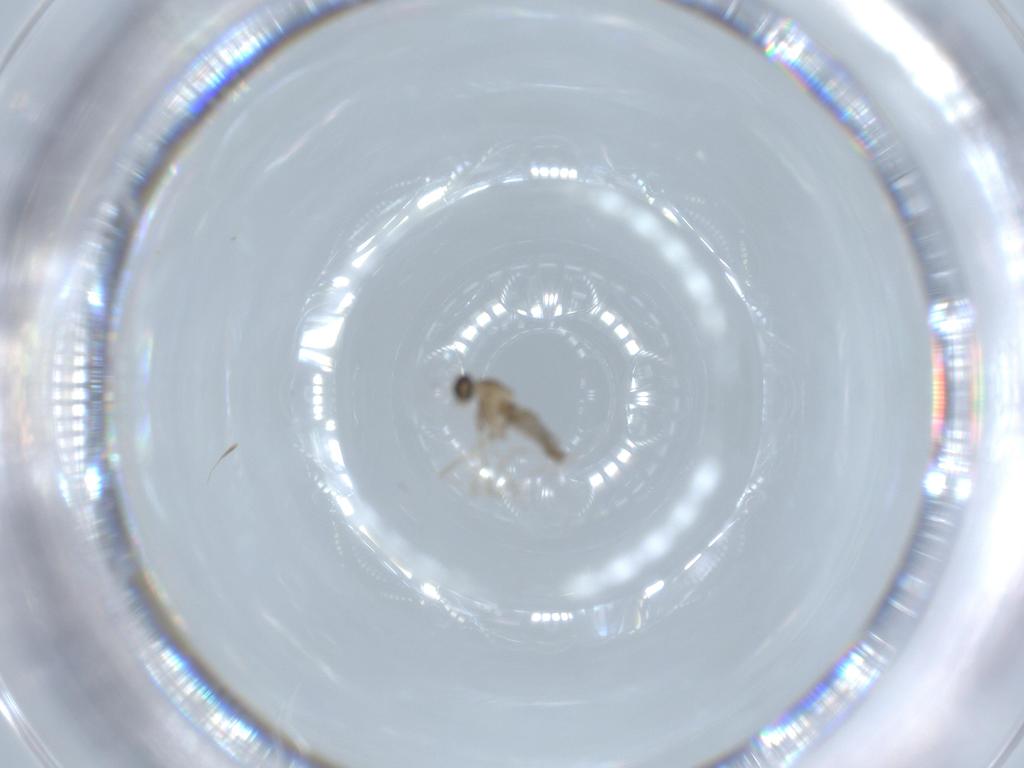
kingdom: Animalia
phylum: Arthropoda
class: Insecta
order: Diptera
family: Cecidomyiidae
